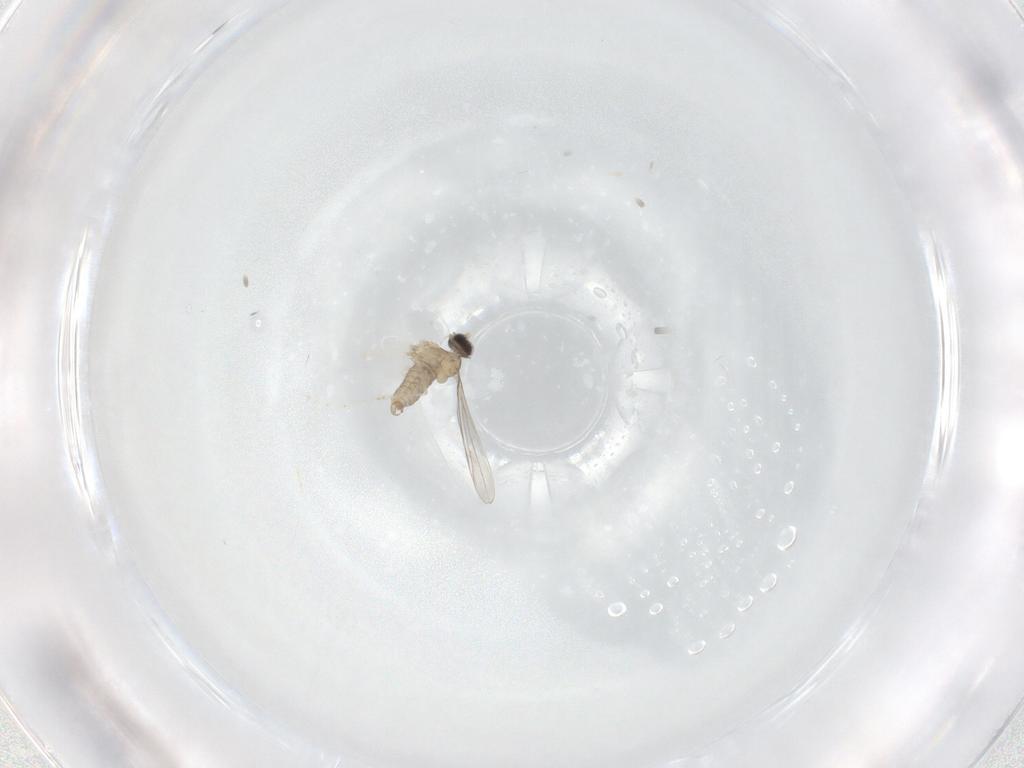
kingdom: Animalia
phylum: Arthropoda
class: Insecta
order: Diptera
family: Cecidomyiidae
